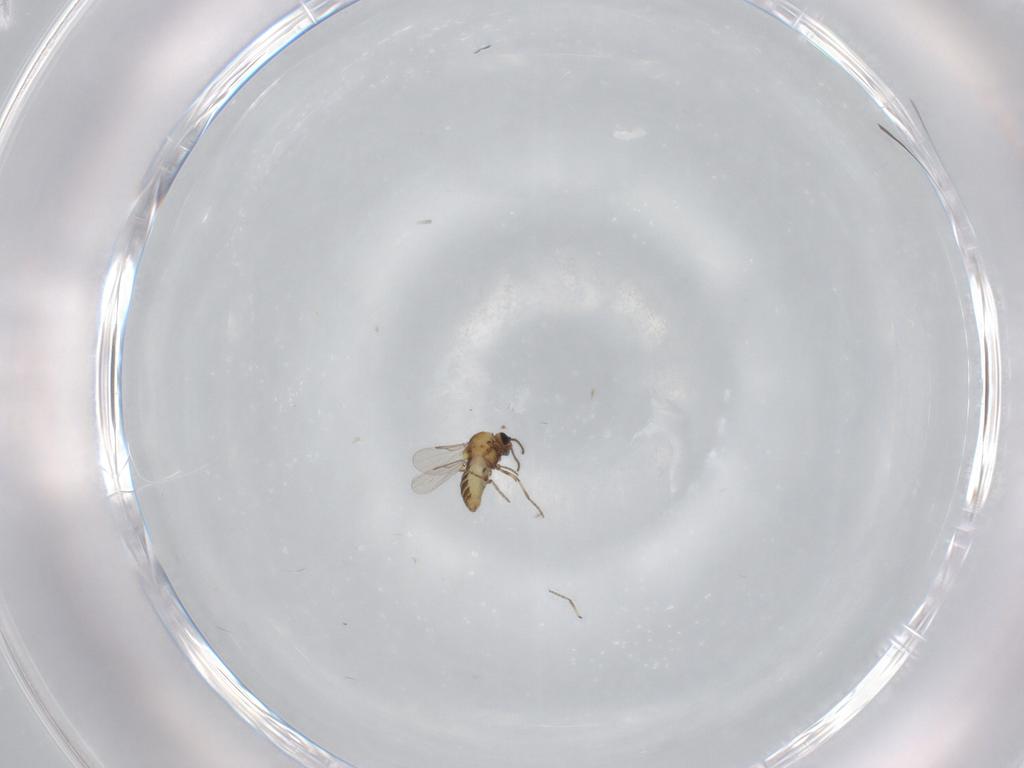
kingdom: Animalia
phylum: Arthropoda
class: Insecta
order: Diptera
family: Ceratopogonidae
